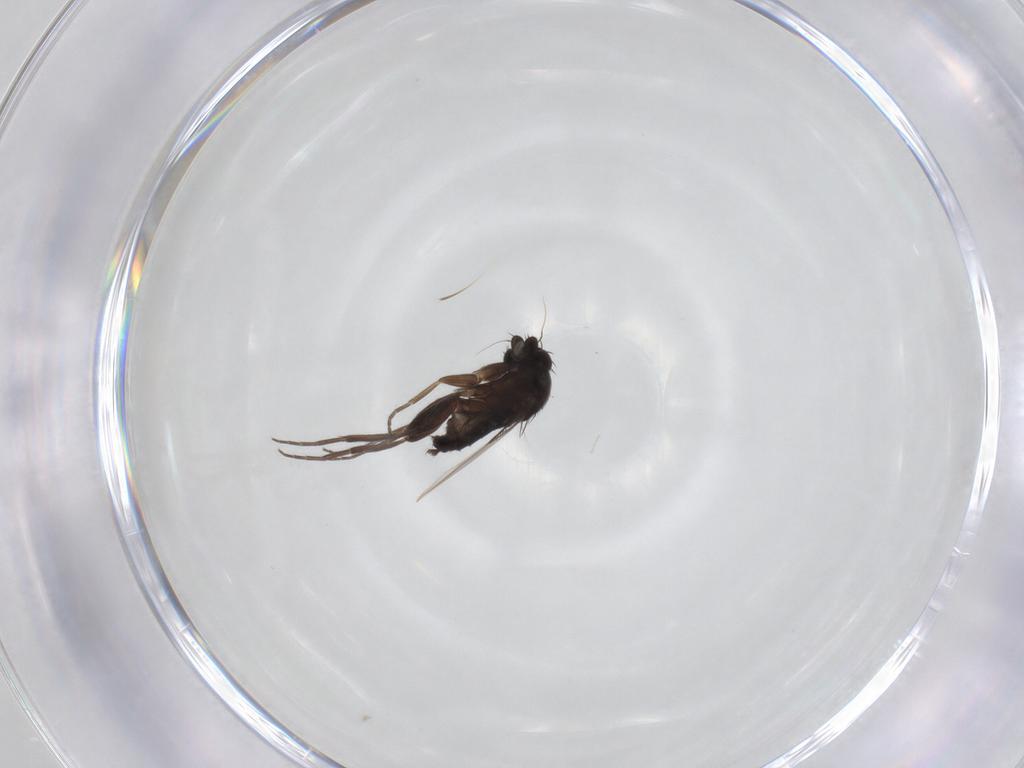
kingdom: Animalia
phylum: Arthropoda
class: Insecta
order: Diptera
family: Phoridae
